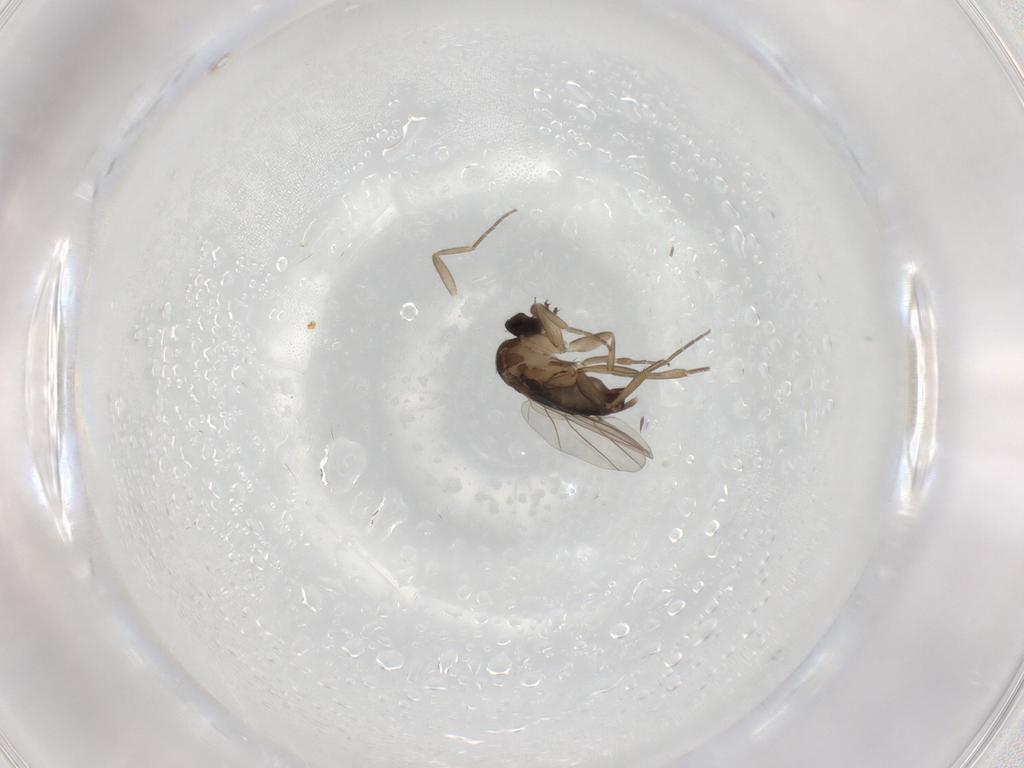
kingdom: Animalia
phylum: Arthropoda
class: Insecta
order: Diptera
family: Phoridae
